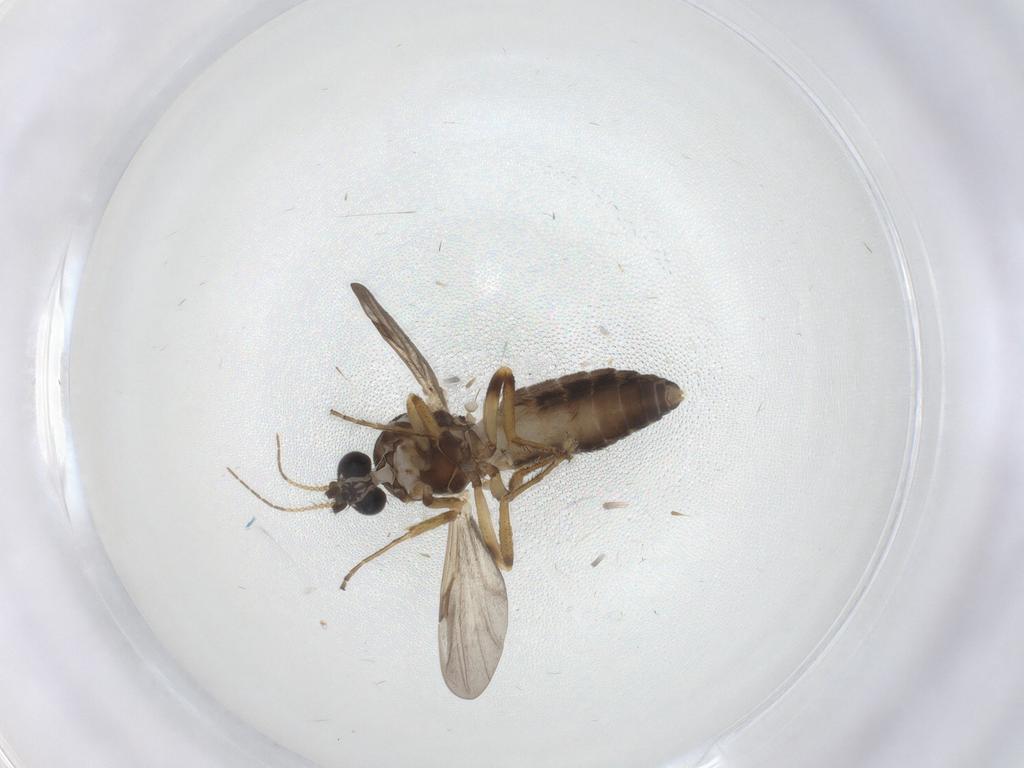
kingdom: Animalia
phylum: Arthropoda
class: Insecta
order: Diptera
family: Ceratopogonidae
